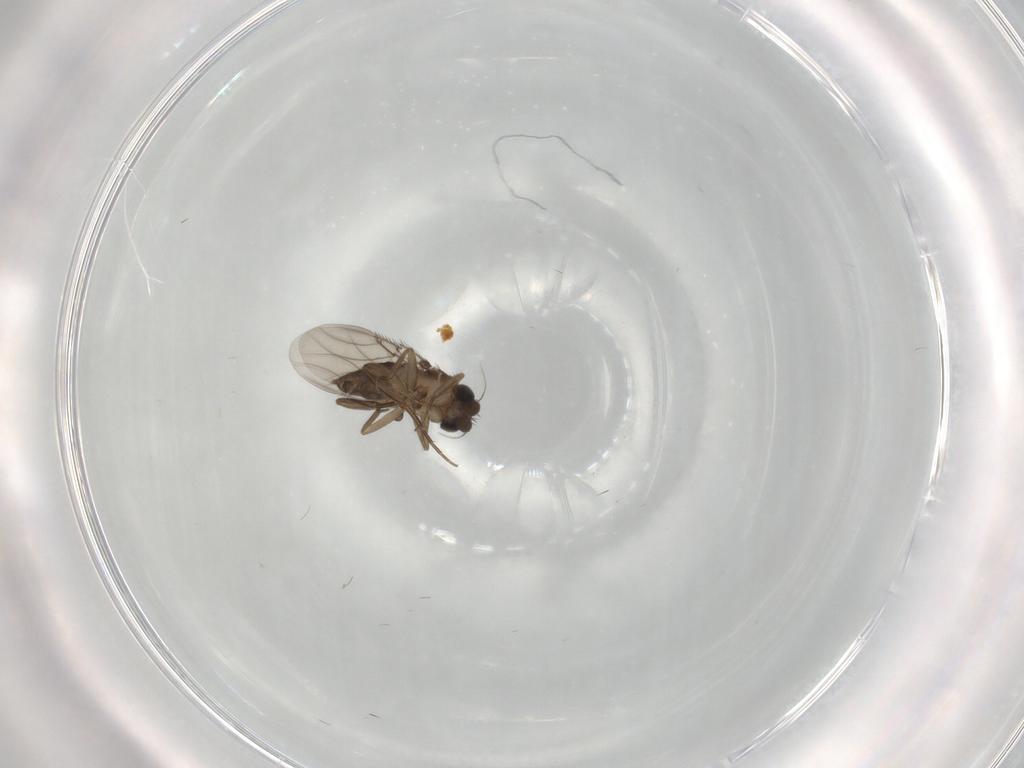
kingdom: Animalia
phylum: Arthropoda
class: Insecta
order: Diptera
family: Phoridae
